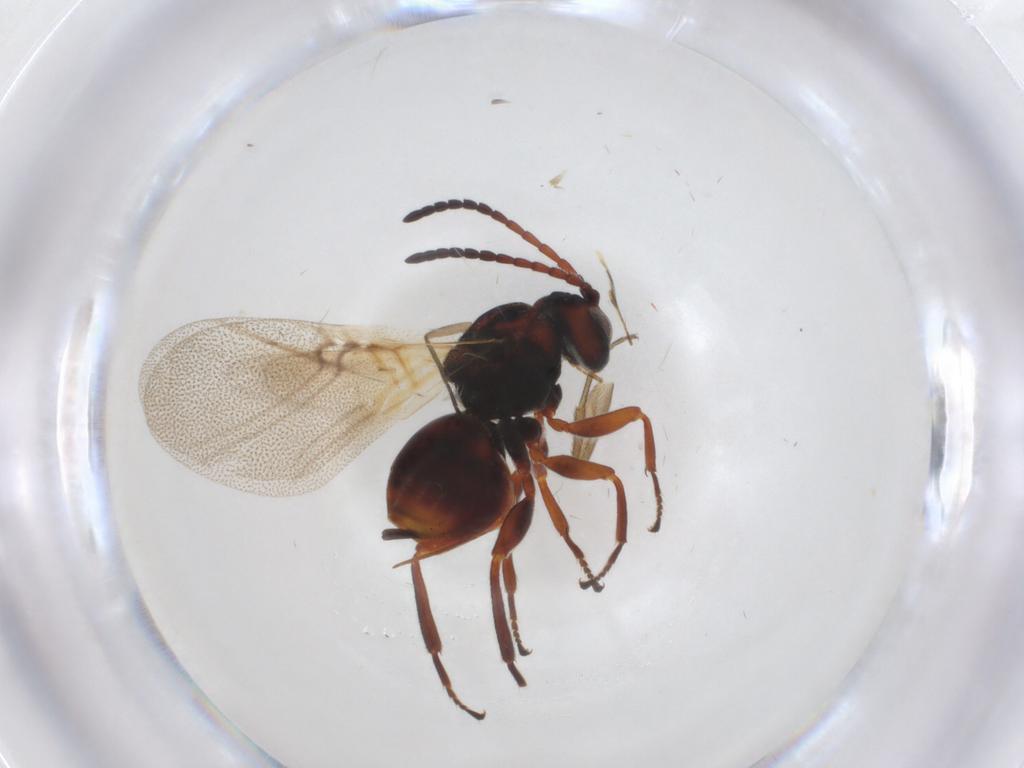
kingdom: Animalia
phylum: Arthropoda
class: Insecta
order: Hymenoptera
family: Cynipidae
